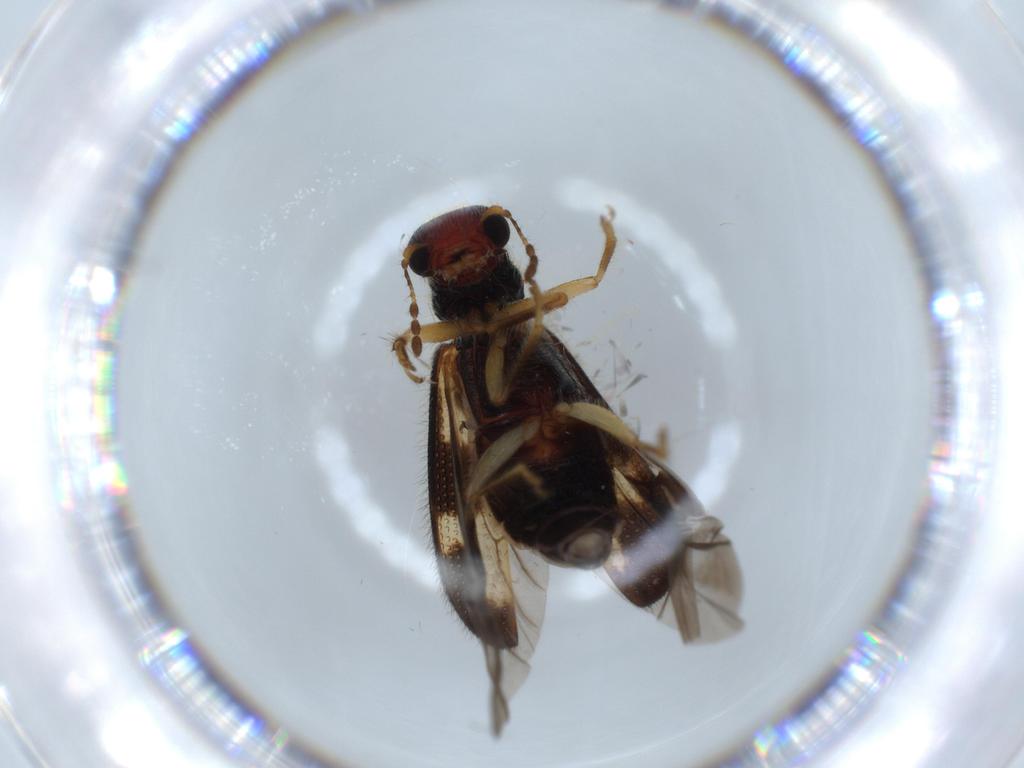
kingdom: Animalia
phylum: Arthropoda
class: Insecta
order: Coleoptera
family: Cleridae
